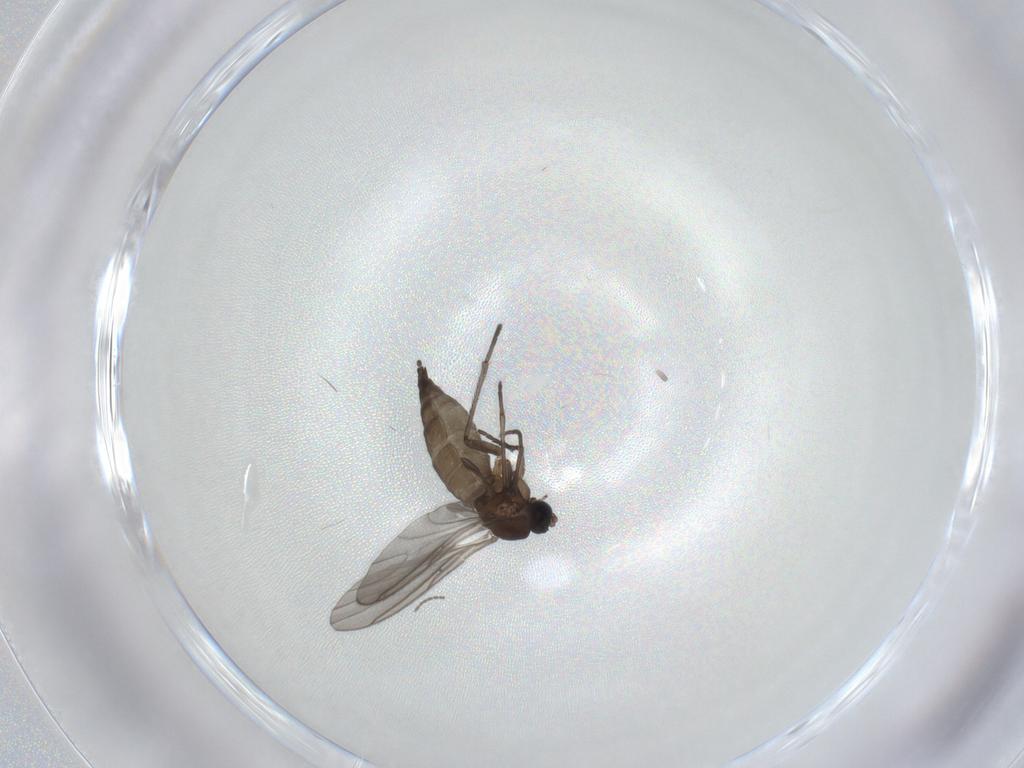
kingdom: Animalia
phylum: Arthropoda
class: Insecta
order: Diptera
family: Sciaridae
